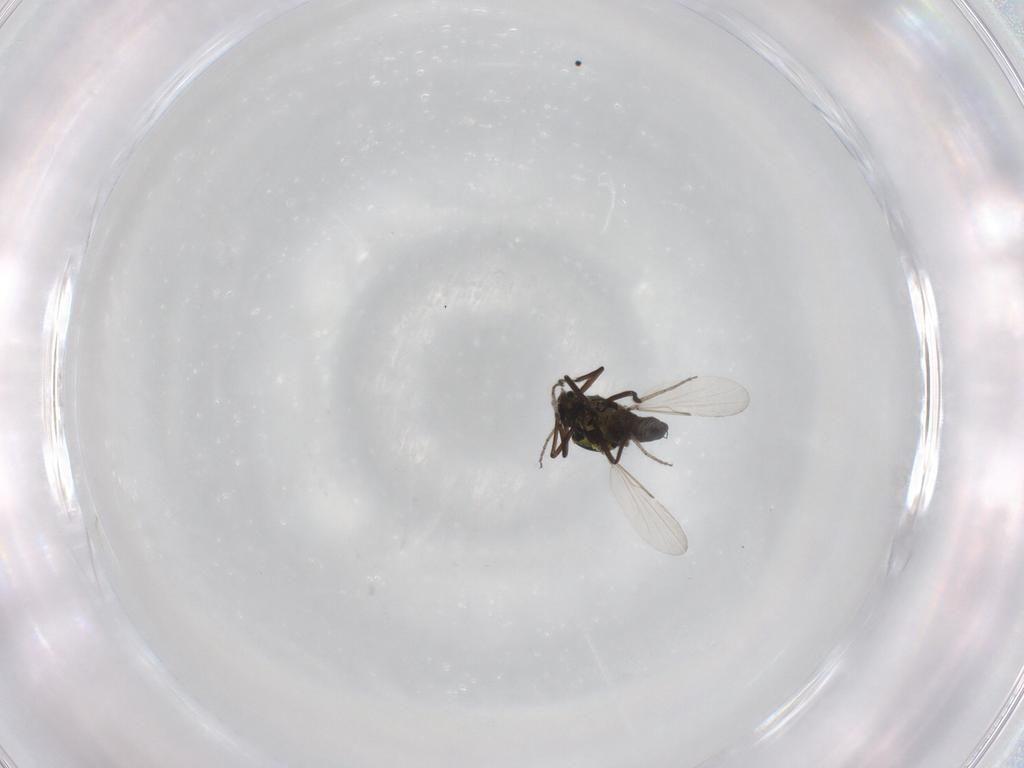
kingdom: Animalia
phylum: Arthropoda
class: Insecta
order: Diptera
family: Ceratopogonidae
